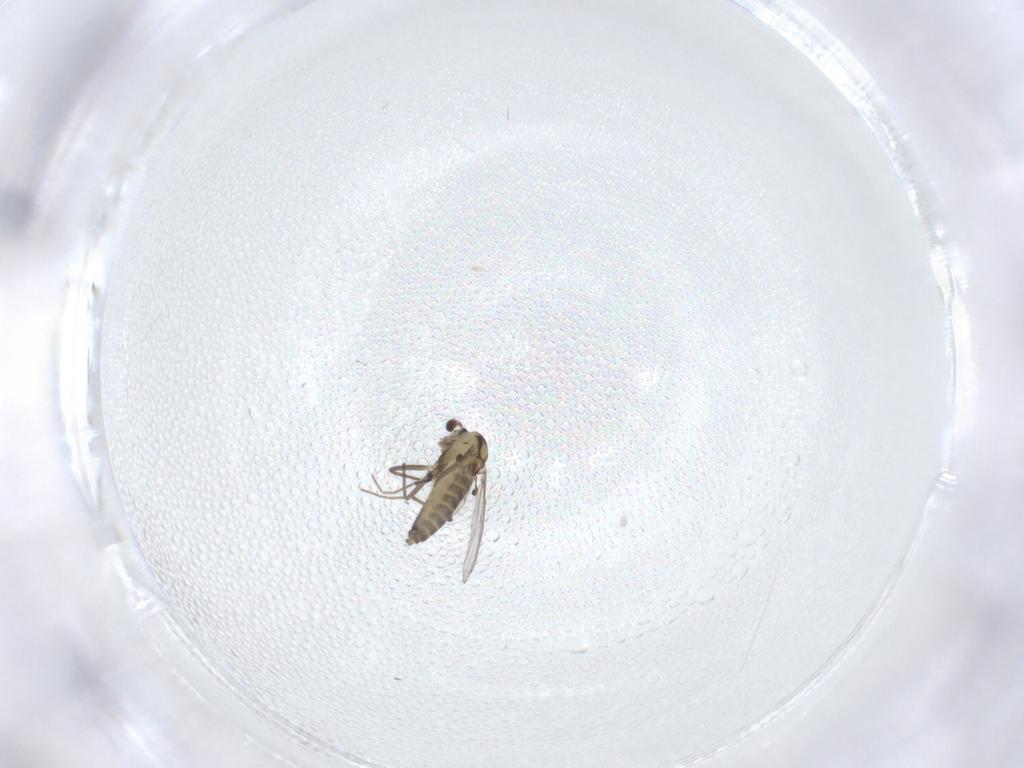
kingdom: Animalia
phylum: Arthropoda
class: Insecta
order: Diptera
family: Chironomidae
